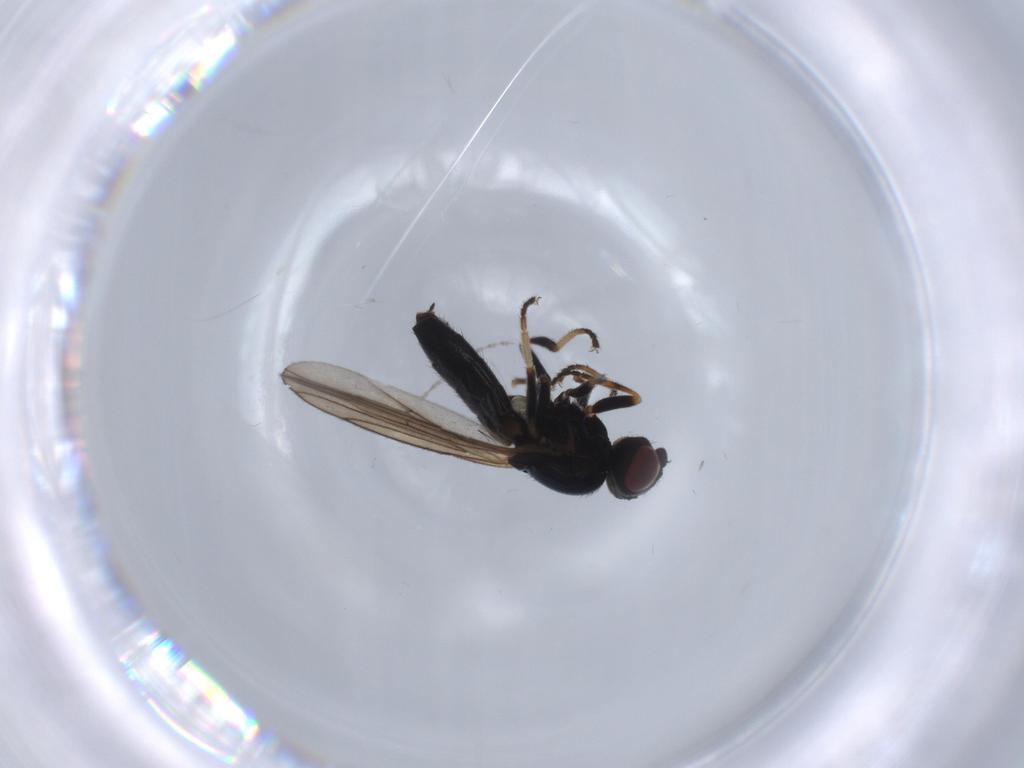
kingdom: Animalia
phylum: Arthropoda
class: Insecta
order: Diptera
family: Chloropidae
